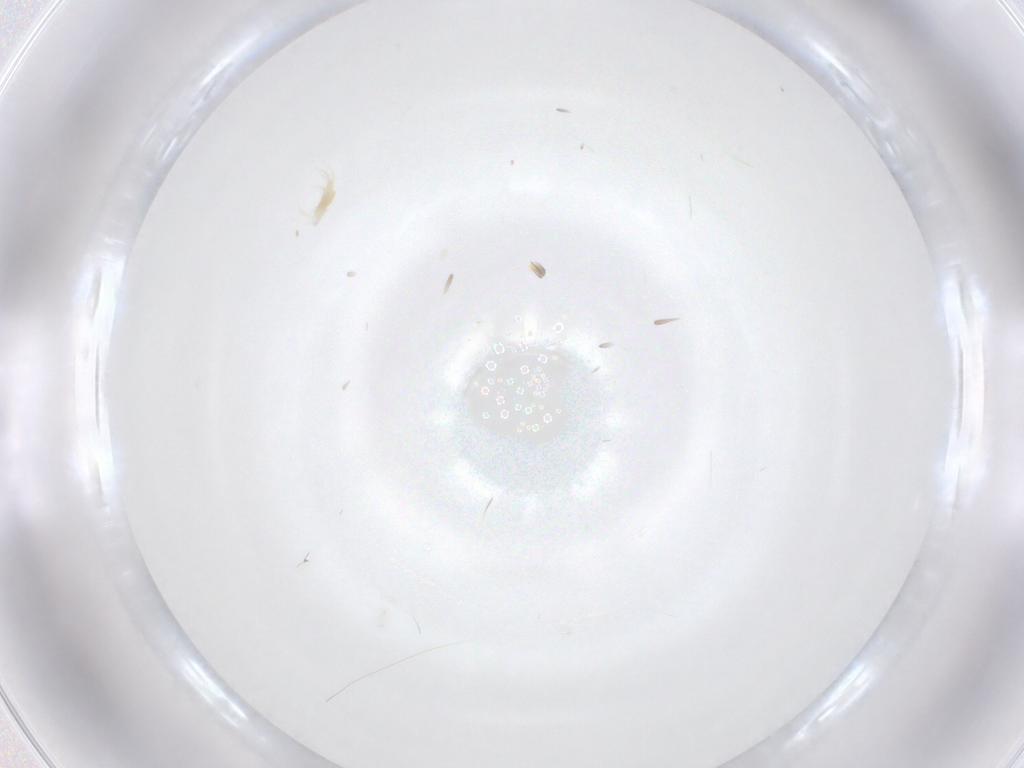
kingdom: Animalia
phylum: Arthropoda
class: Arachnida
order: Trombidiformes
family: Tetranychidae
